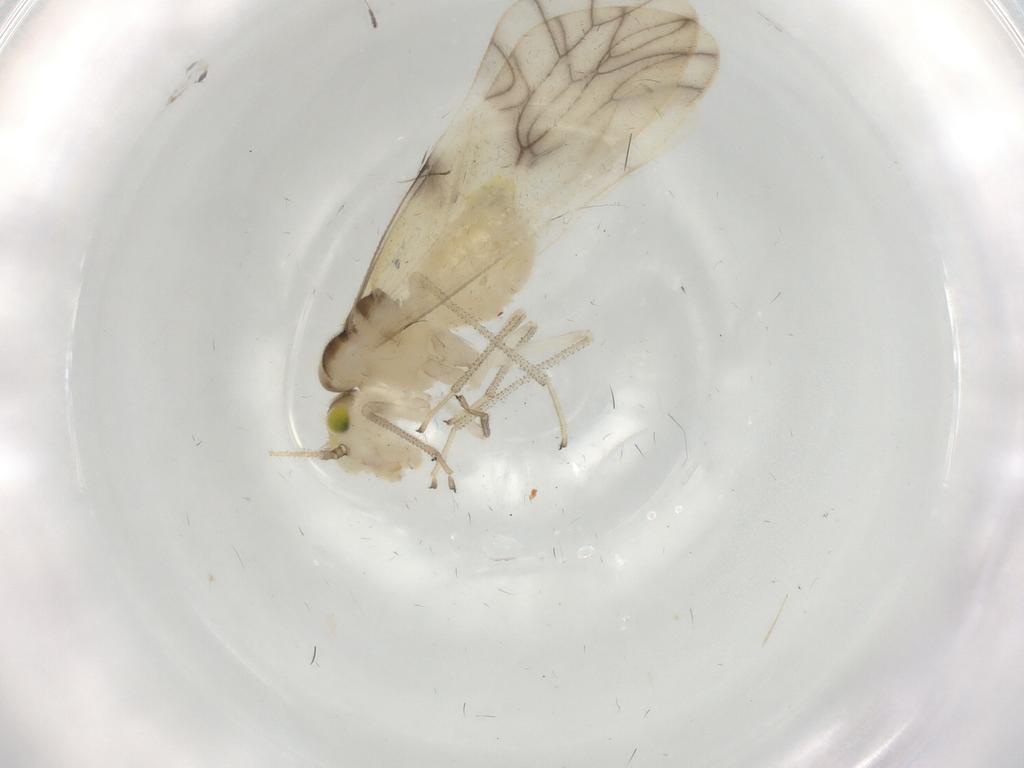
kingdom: Animalia
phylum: Arthropoda
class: Insecta
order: Psocodea
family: Caeciliusidae
